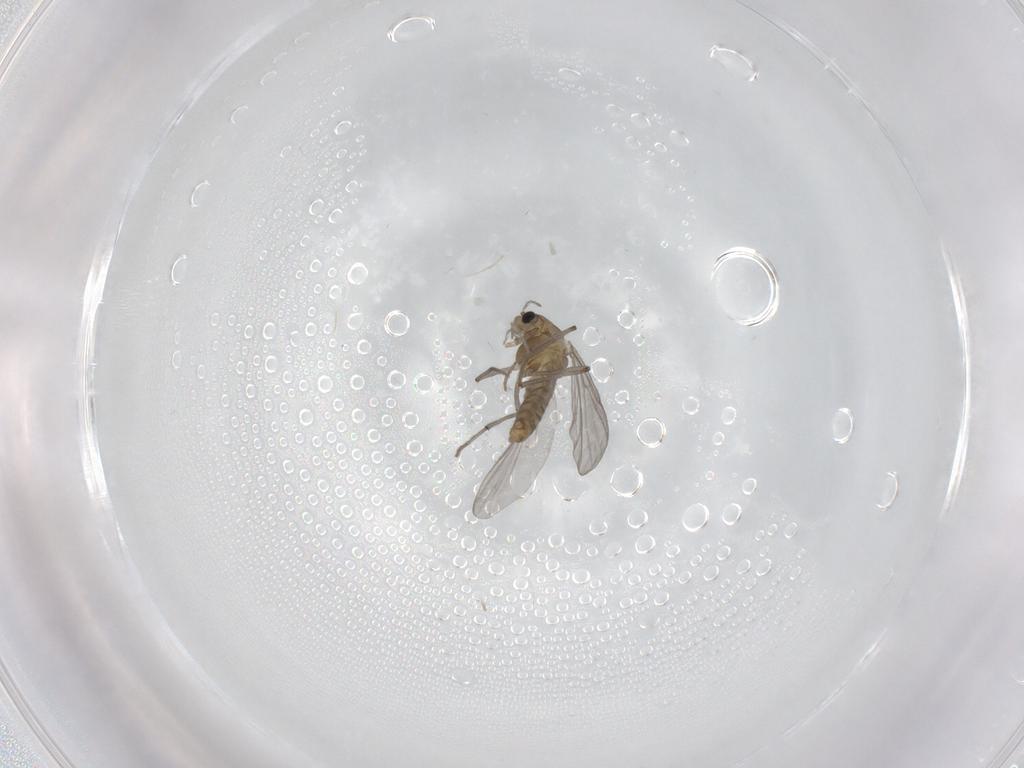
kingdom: Animalia
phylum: Arthropoda
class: Insecta
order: Diptera
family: Chironomidae
